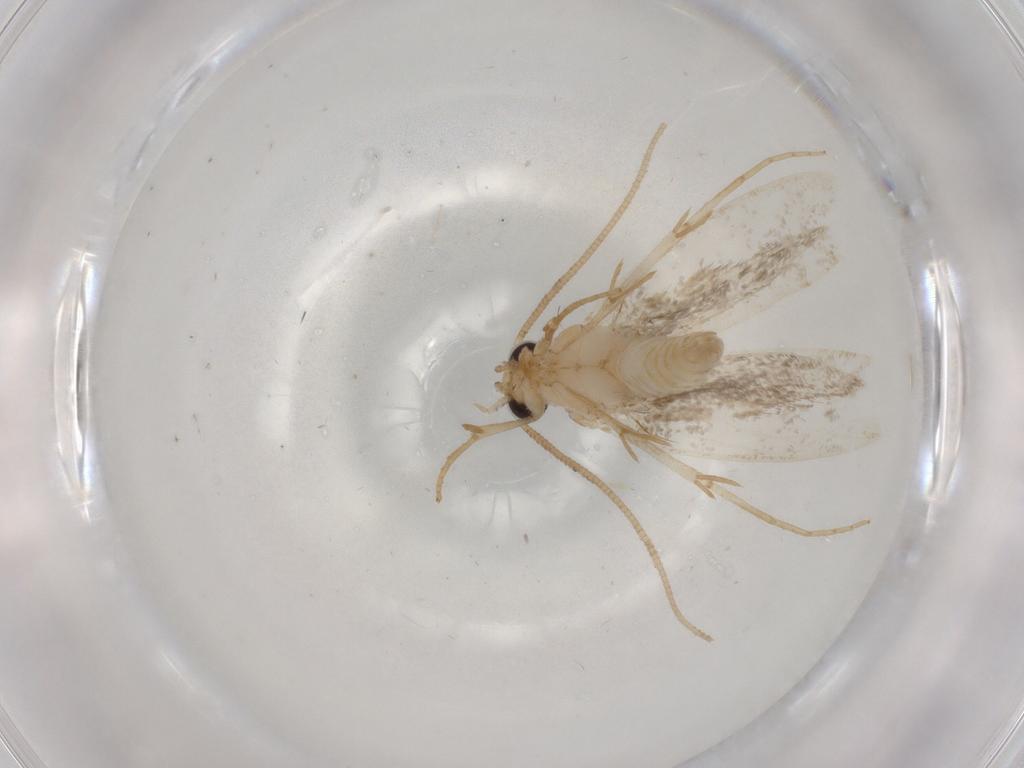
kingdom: Animalia
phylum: Arthropoda
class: Insecta
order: Lepidoptera
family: Tineidae
